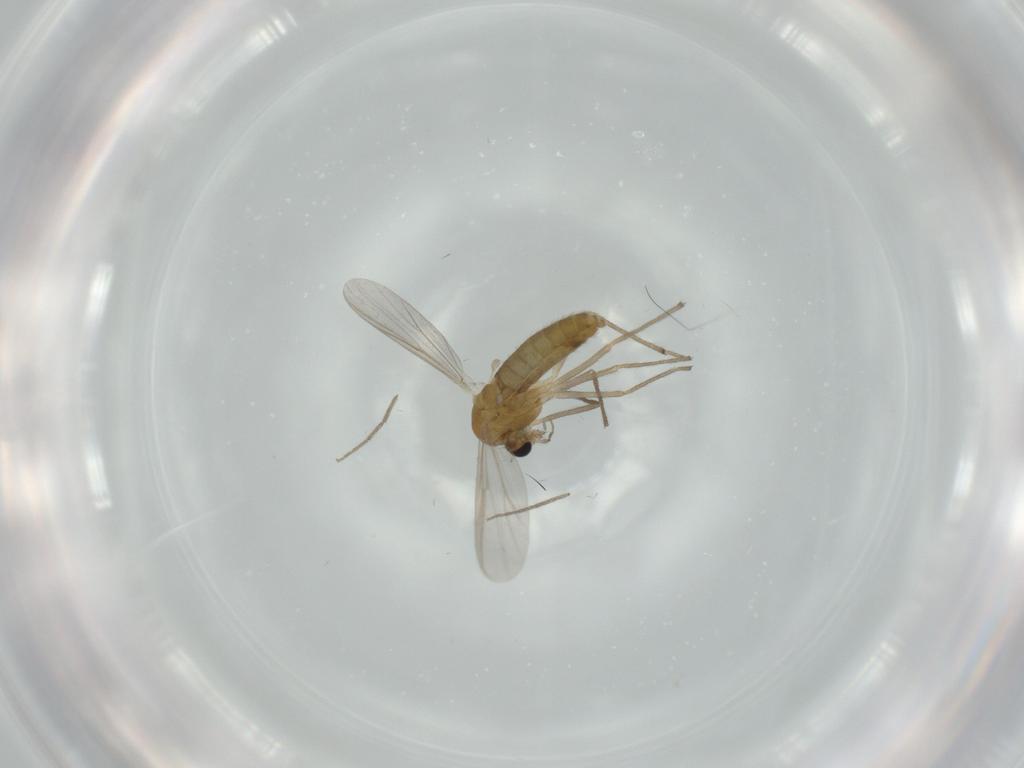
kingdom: Animalia
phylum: Arthropoda
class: Insecta
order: Diptera
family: Chironomidae
